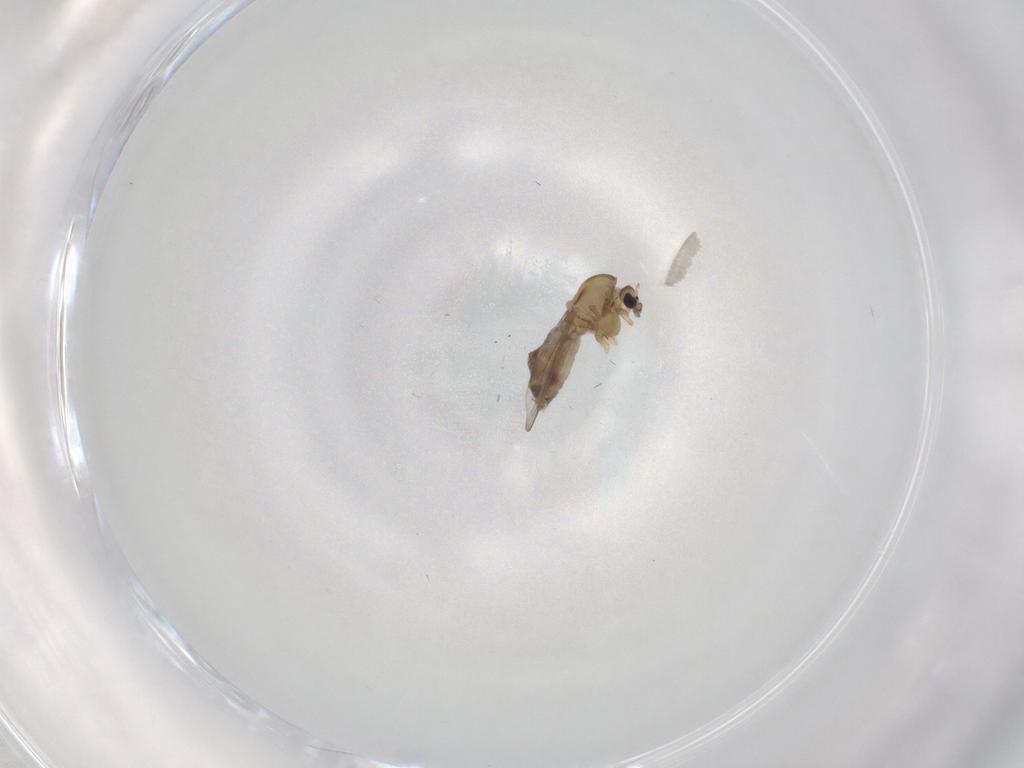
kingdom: Animalia
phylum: Arthropoda
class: Insecta
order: Diptera
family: Chironomidae
